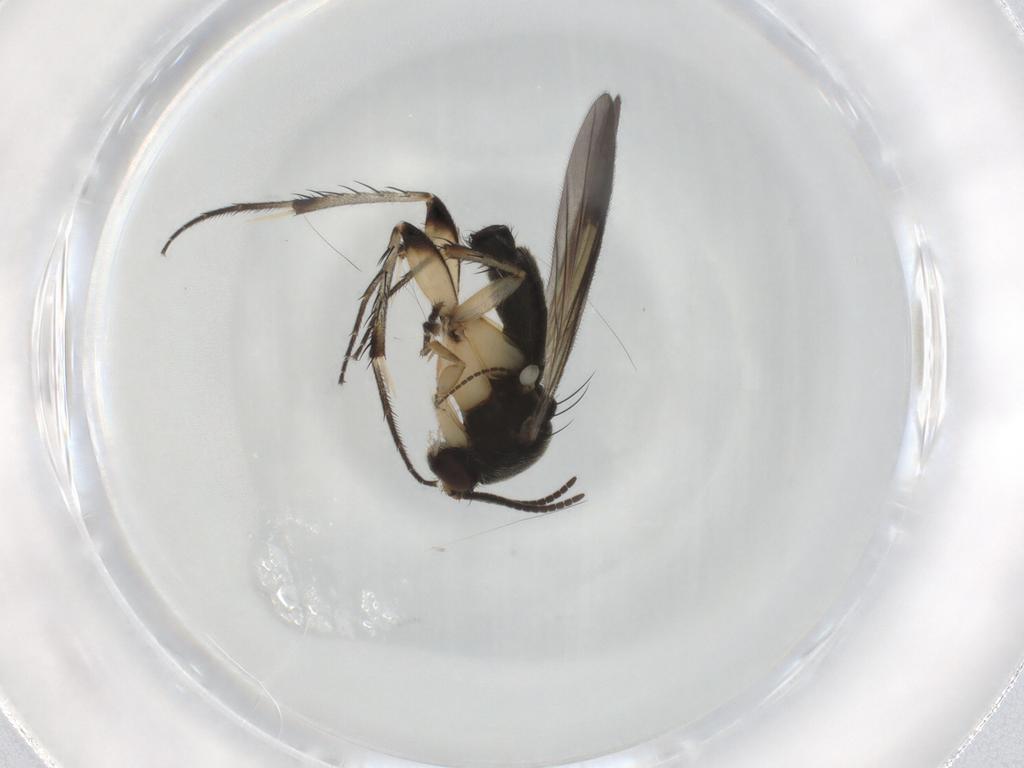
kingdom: Animalia
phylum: Arthropoda
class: Insecta
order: Diptera
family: Mycetophilidae
